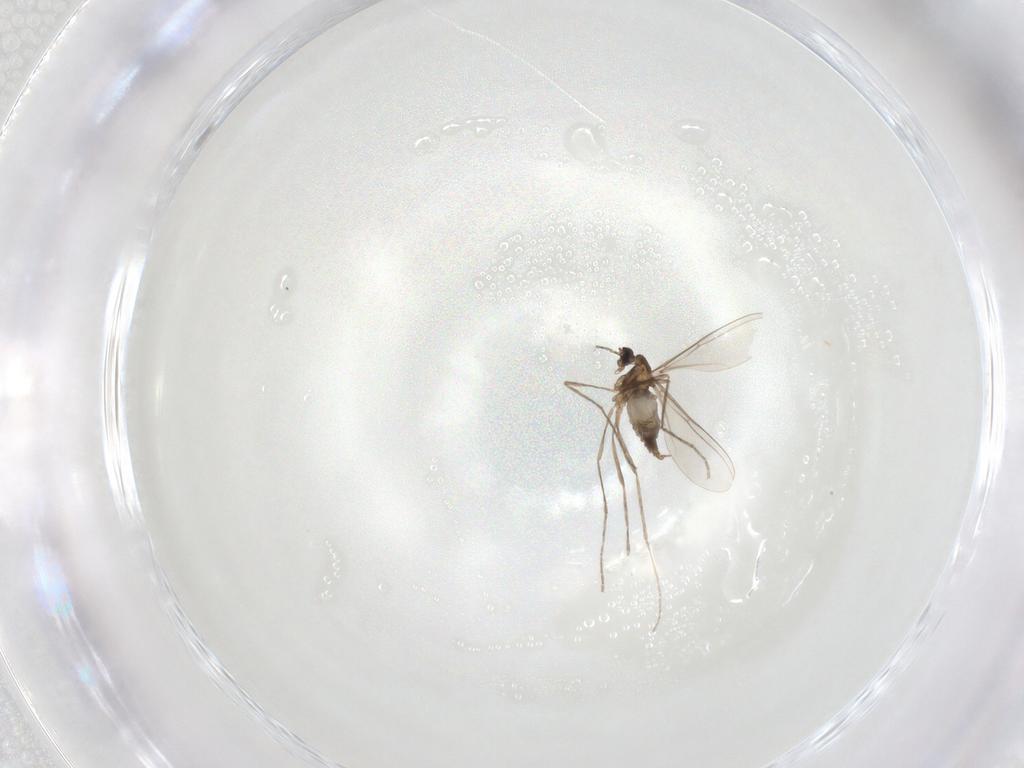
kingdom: Animalia
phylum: Arthropoda
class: Insecta
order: Diptera
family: Cecidomyiidae
